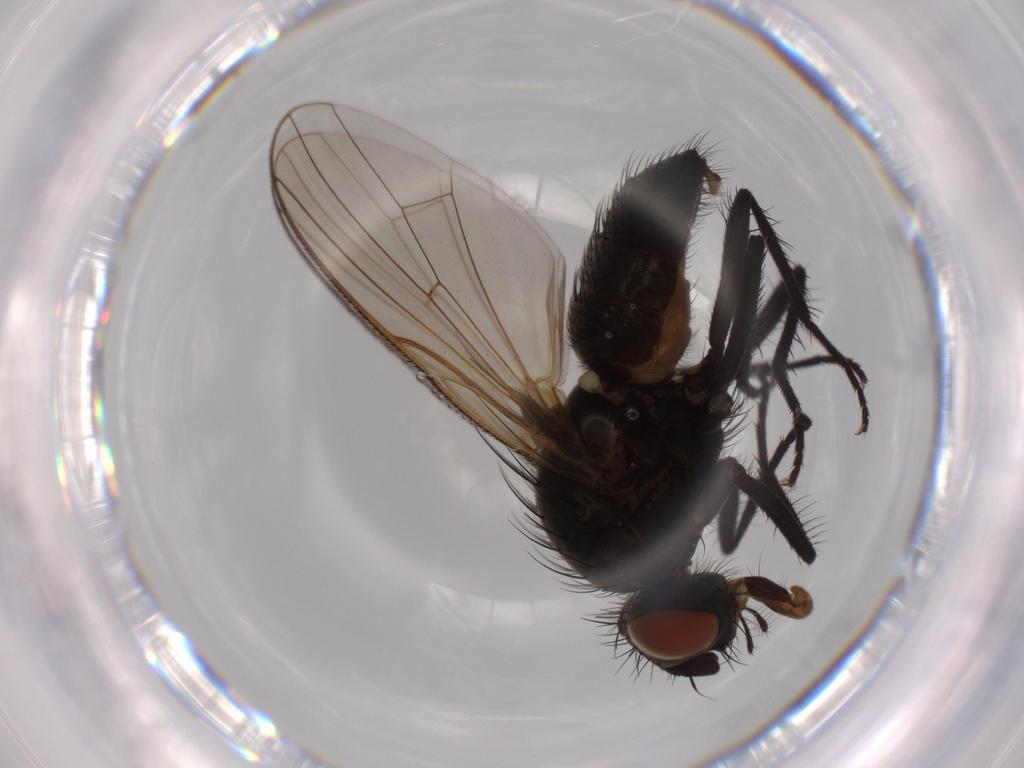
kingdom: Animalia
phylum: Arthropoda
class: Insecta
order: Diptera
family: Anthomyiidae
